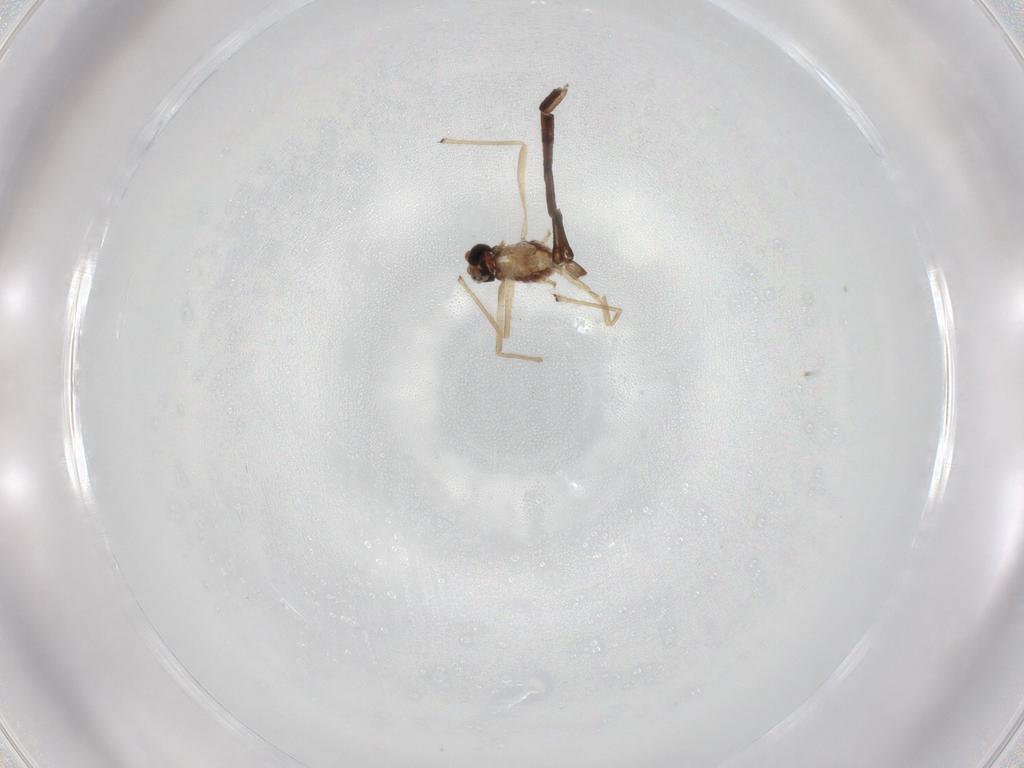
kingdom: Animalia
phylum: Arthropoda
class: Insecta
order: Diptera
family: Chironomidae
